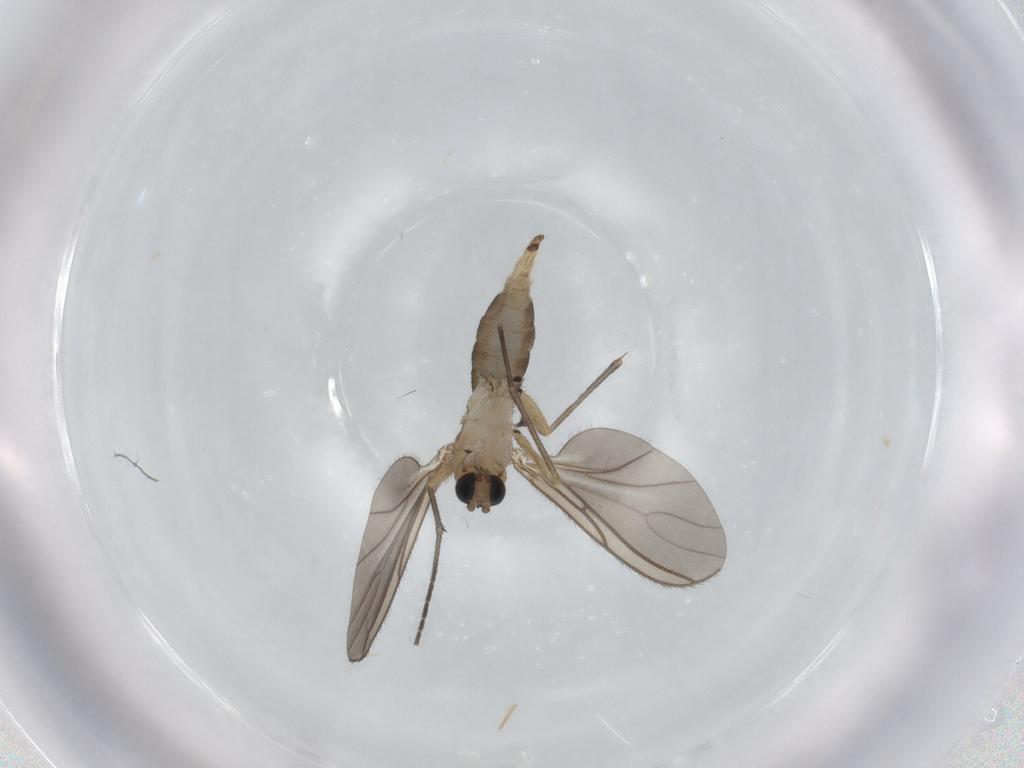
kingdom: Animalia
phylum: Arthropoda
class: Insecta
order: Diptera
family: Sciaridae
